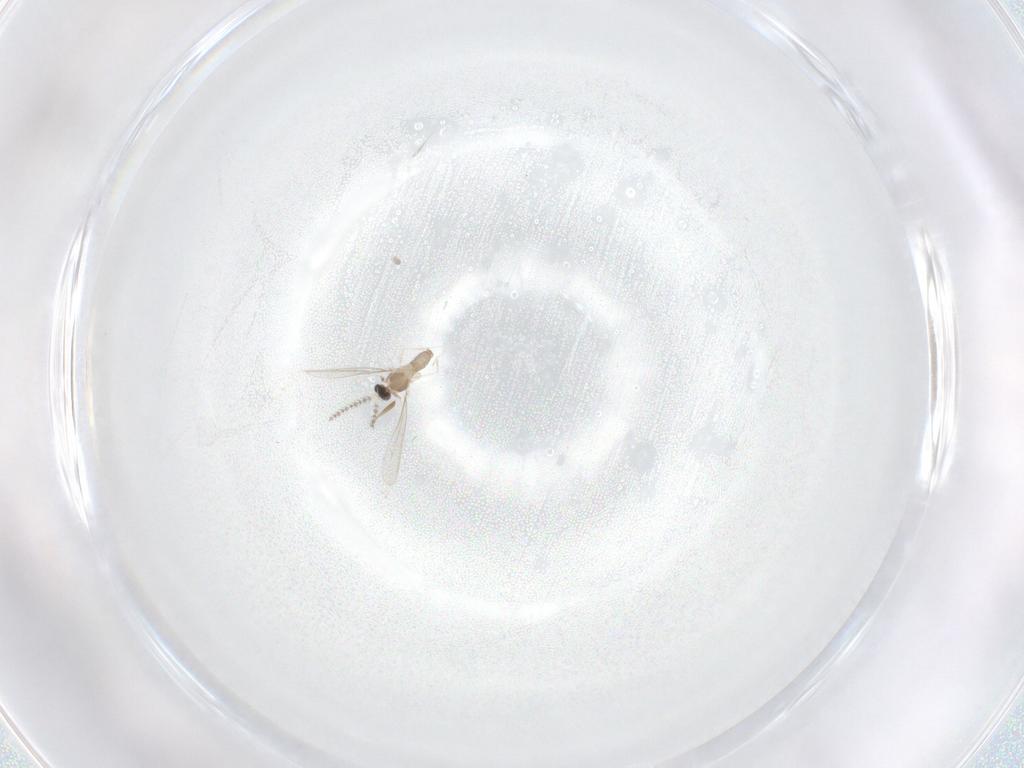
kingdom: Animalia
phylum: Arthropoda
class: Insecta
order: Diptera
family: Cecidomyiidae
